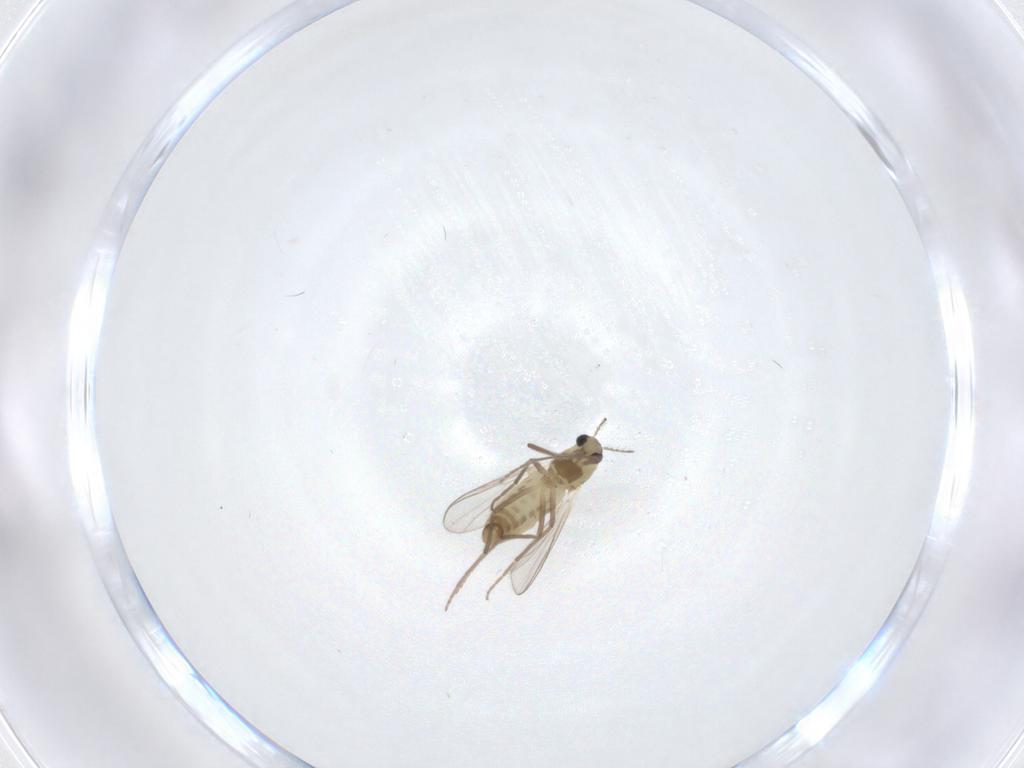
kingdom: Animalia
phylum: Arthropoda
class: Insecta
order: Diptera
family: Chironomidae
